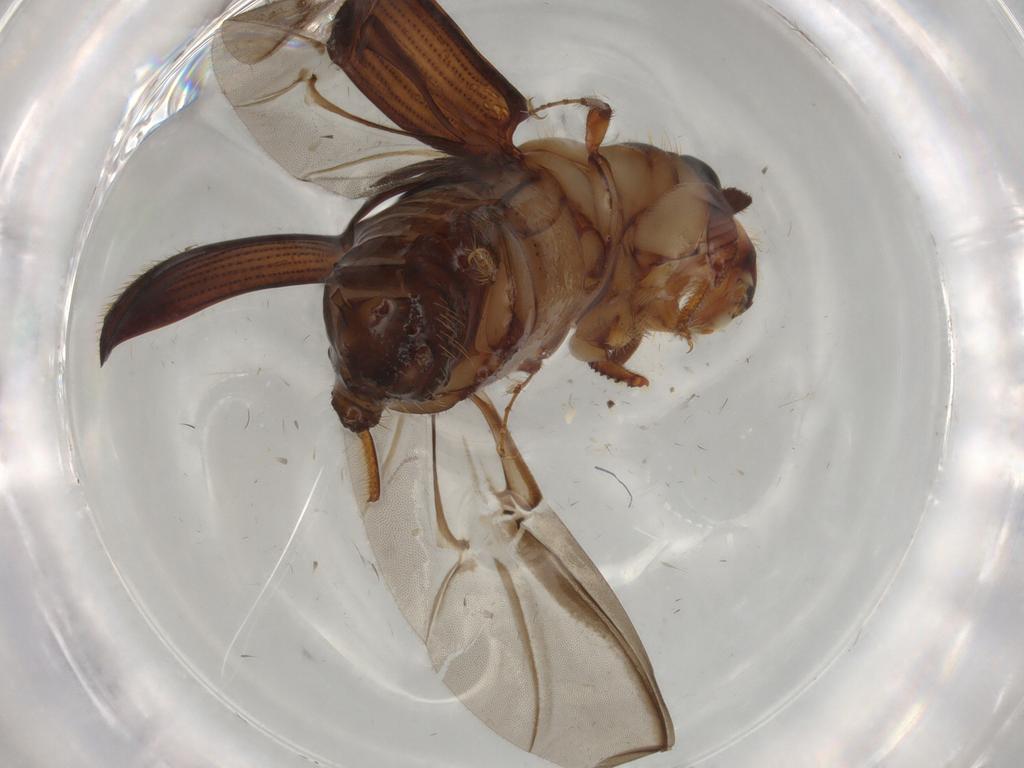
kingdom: Animalia
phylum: Arthropoda
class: Insecta
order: Coleoptera
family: Curculionidae
